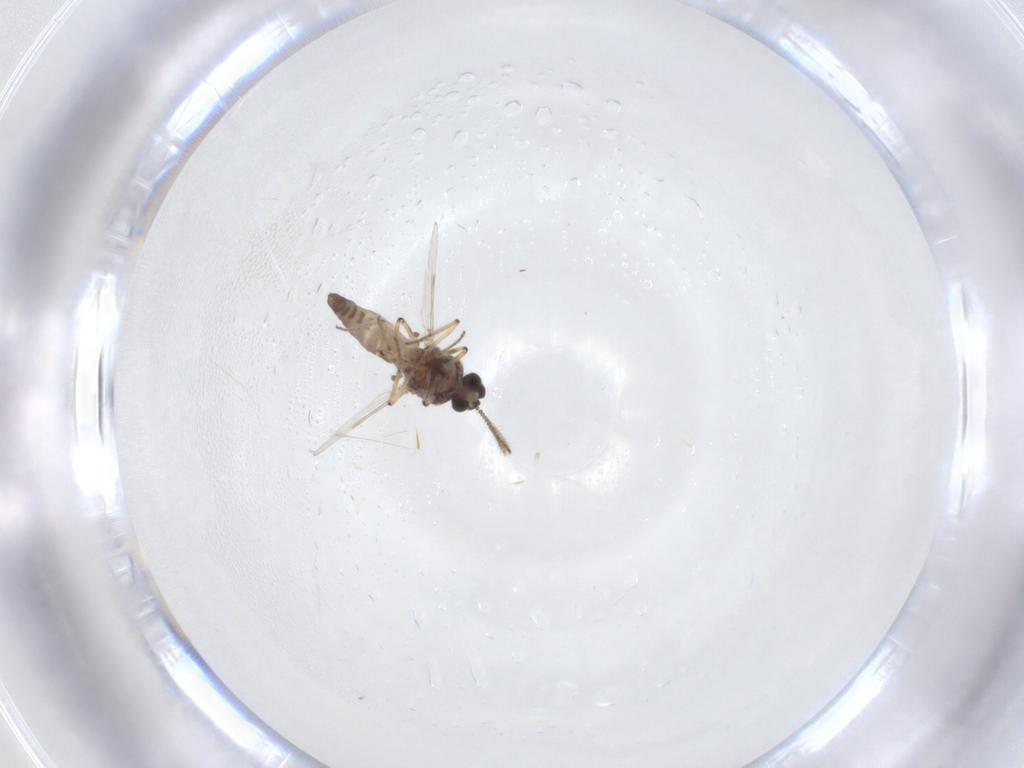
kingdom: Animalia
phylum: Arthropoda
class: Insecta
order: Diptera
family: Ceratopogonidae
